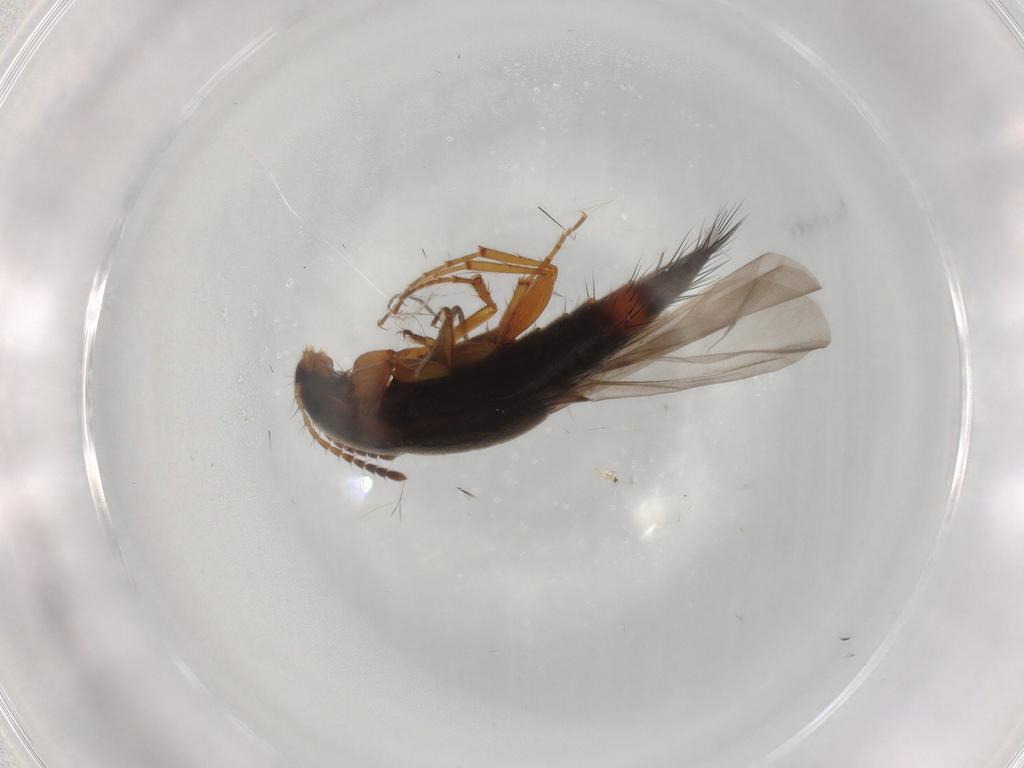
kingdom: Animalia
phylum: Arthropoda
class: Insecta
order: Coleoptera
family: Staphylinidae
